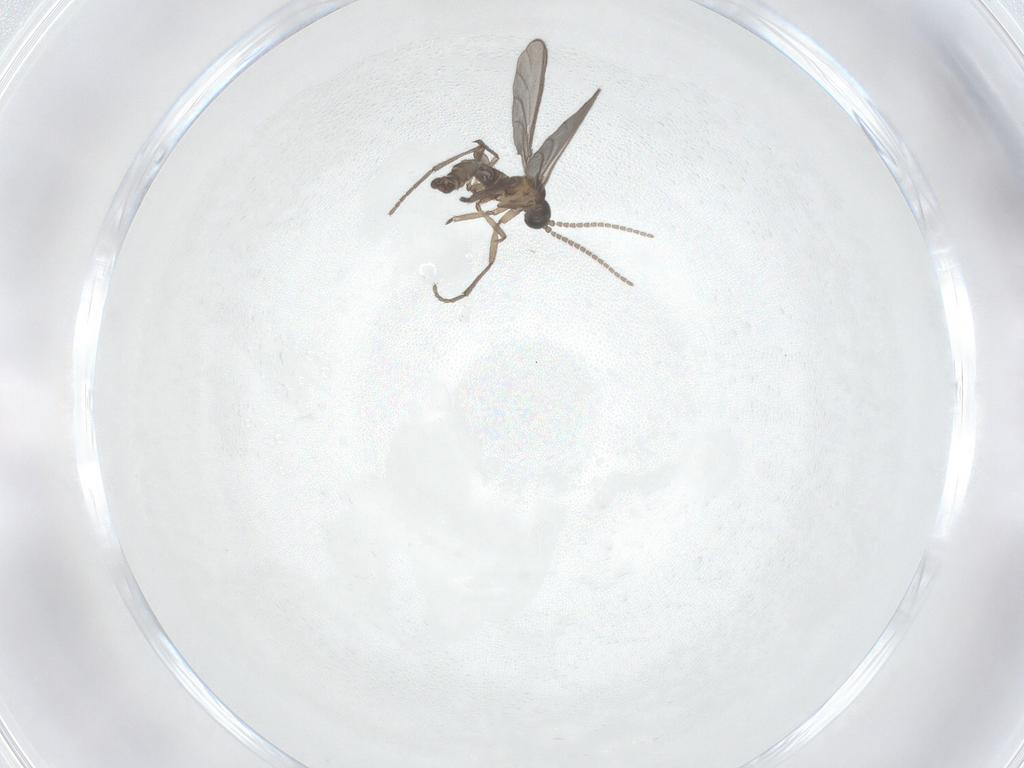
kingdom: Animalia
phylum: Arthropoda
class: Insecta
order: Diptera
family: Sciaridae
